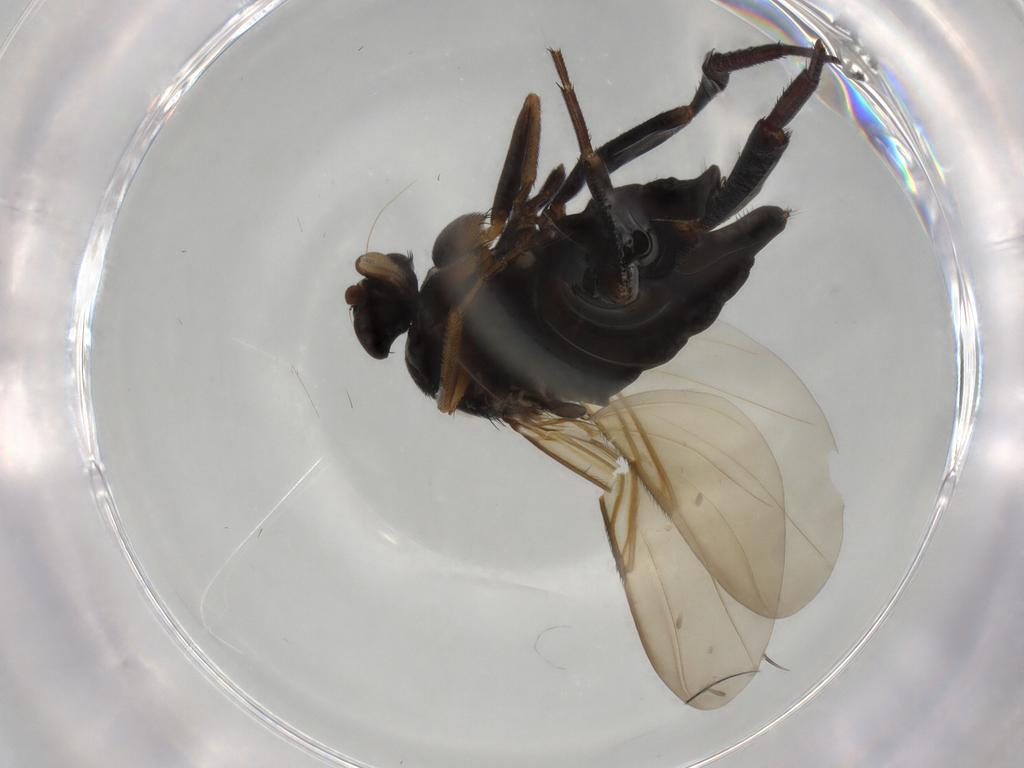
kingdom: Animalia
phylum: Arthropoda
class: Insecta
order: Diptera
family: Phoridae
